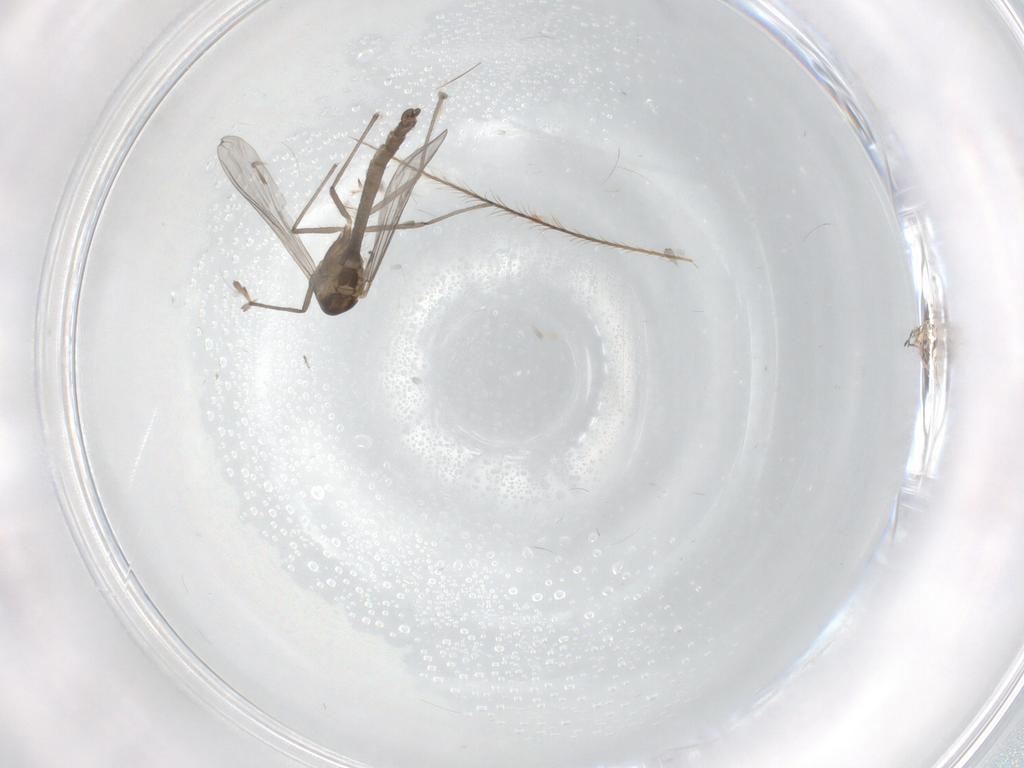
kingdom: Animalia
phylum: Arthropoda
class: Insecta
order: Diptera
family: Chironomidae
